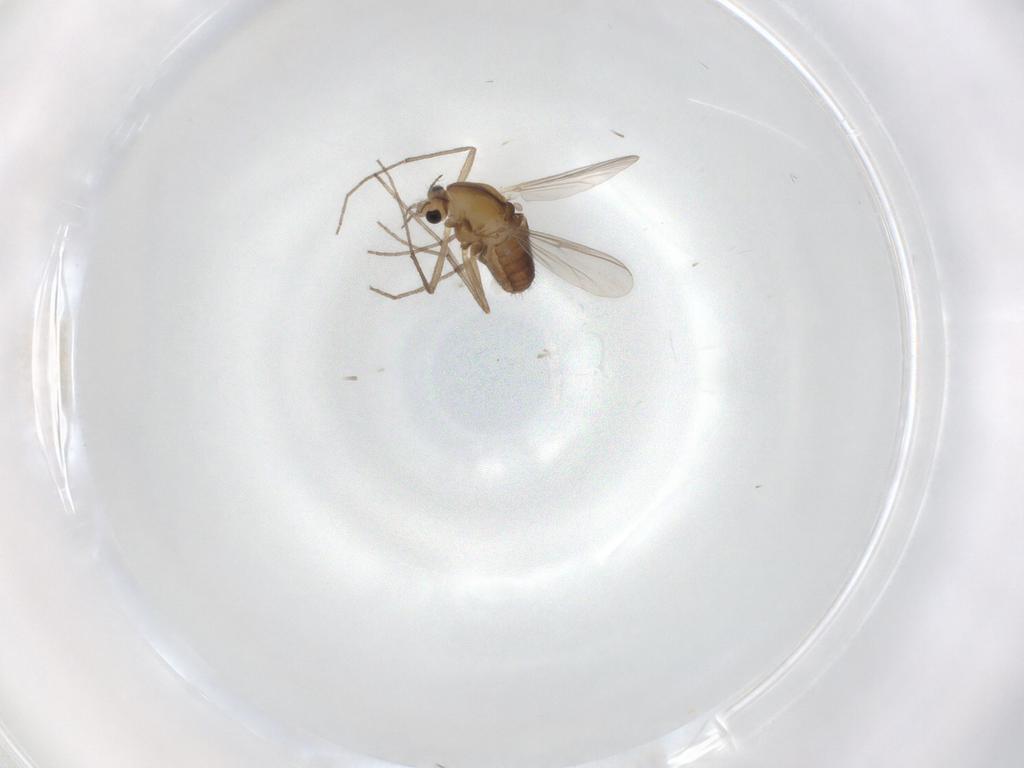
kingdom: Animalia
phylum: Arthropoda
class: Insecta
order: Diptera
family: Chironomidae
